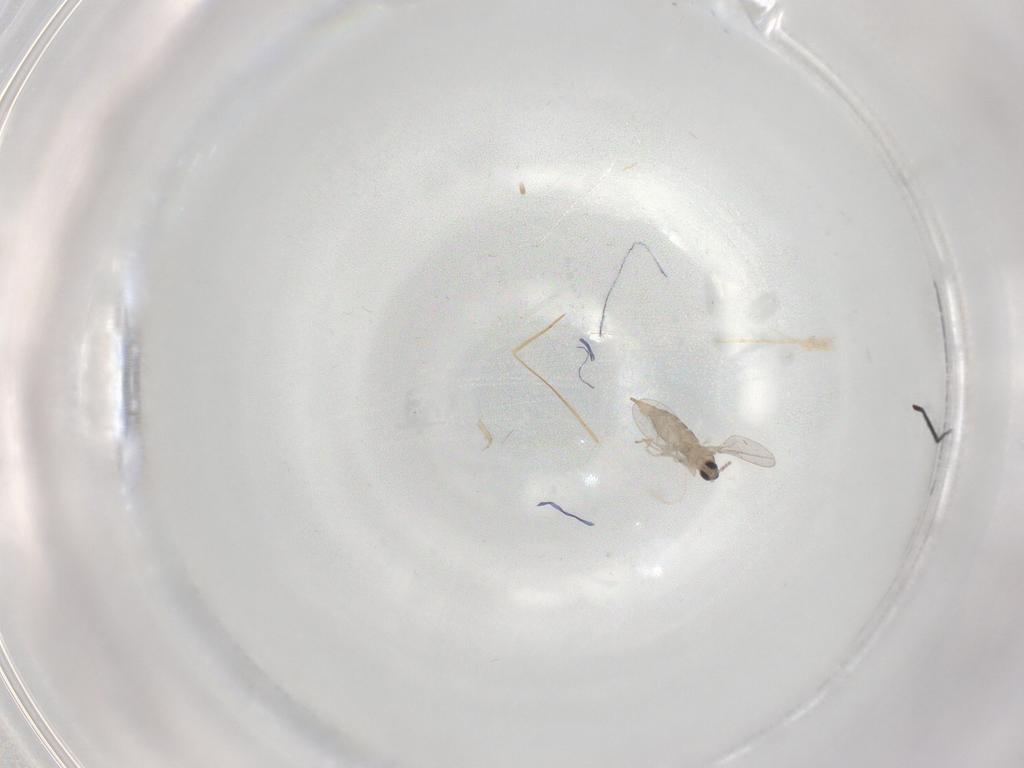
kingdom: Animalia
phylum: Arthropoda
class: Insecta
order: Diptera
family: Cecidomyiidae
